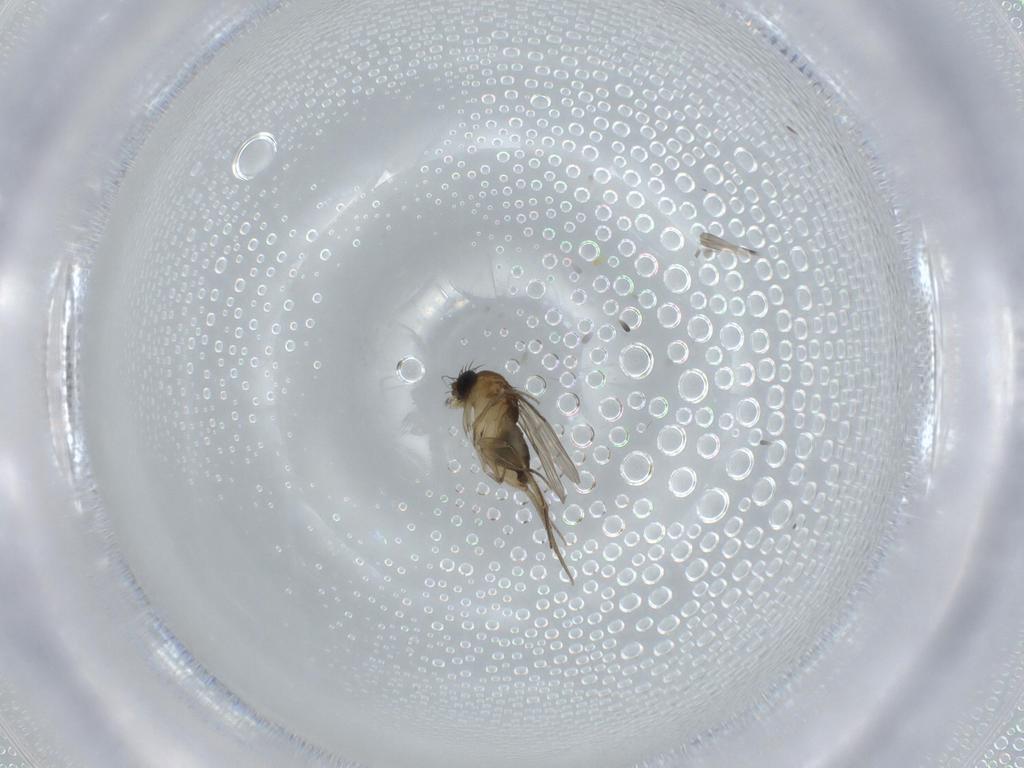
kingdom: Animalia
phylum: Arthropoda
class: Insecta
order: Diptera
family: Phoridae
